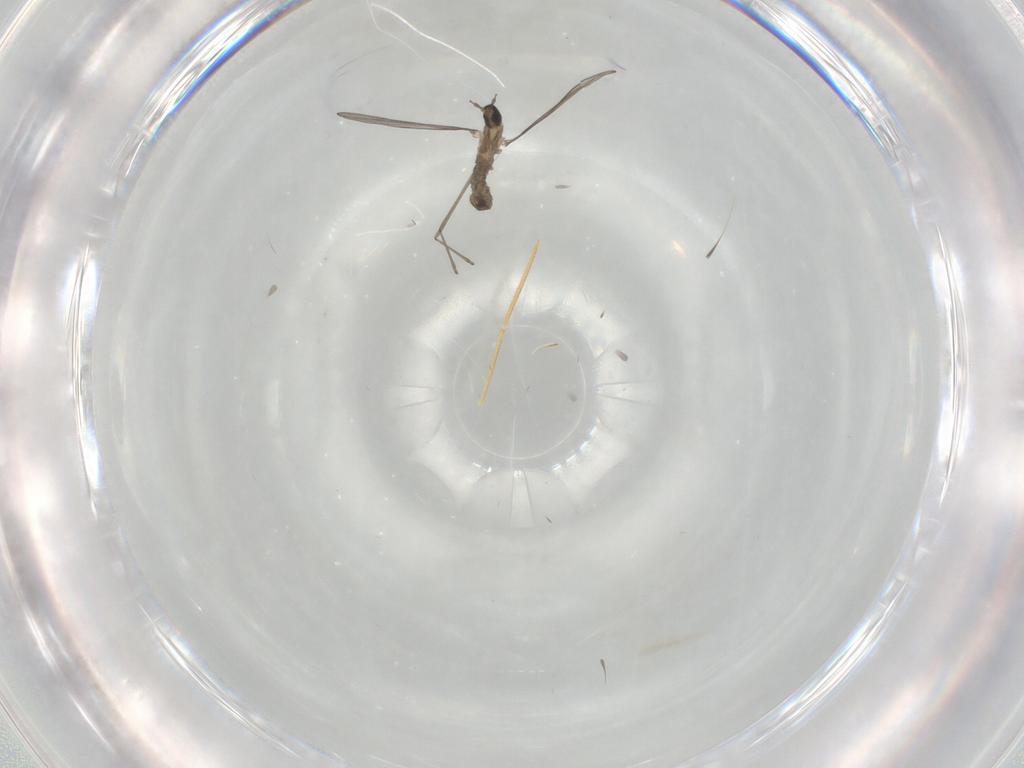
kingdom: Animalia
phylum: Arthropoda
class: Insecta
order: Diptera
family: Cecidomyiidae
